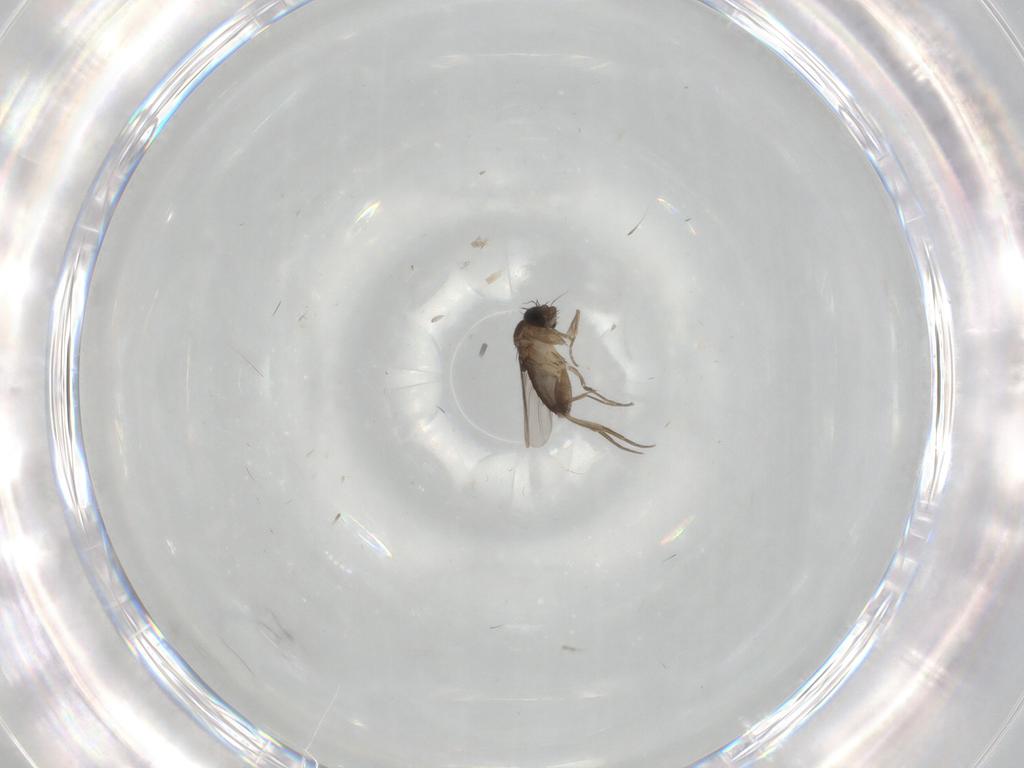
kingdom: Animalia
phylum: Arthropoda
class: Insecta
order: Diptera
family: Phoridae
